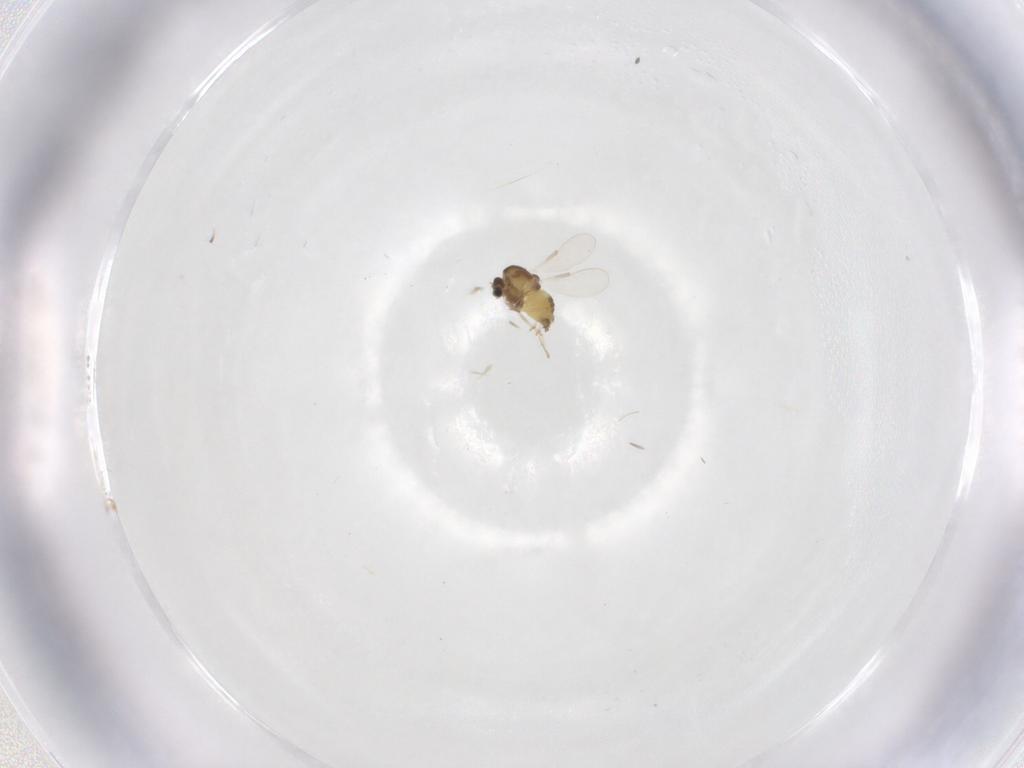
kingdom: Animalia
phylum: Arthropoda
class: Insecta
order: Diptera
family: Chironomidae
